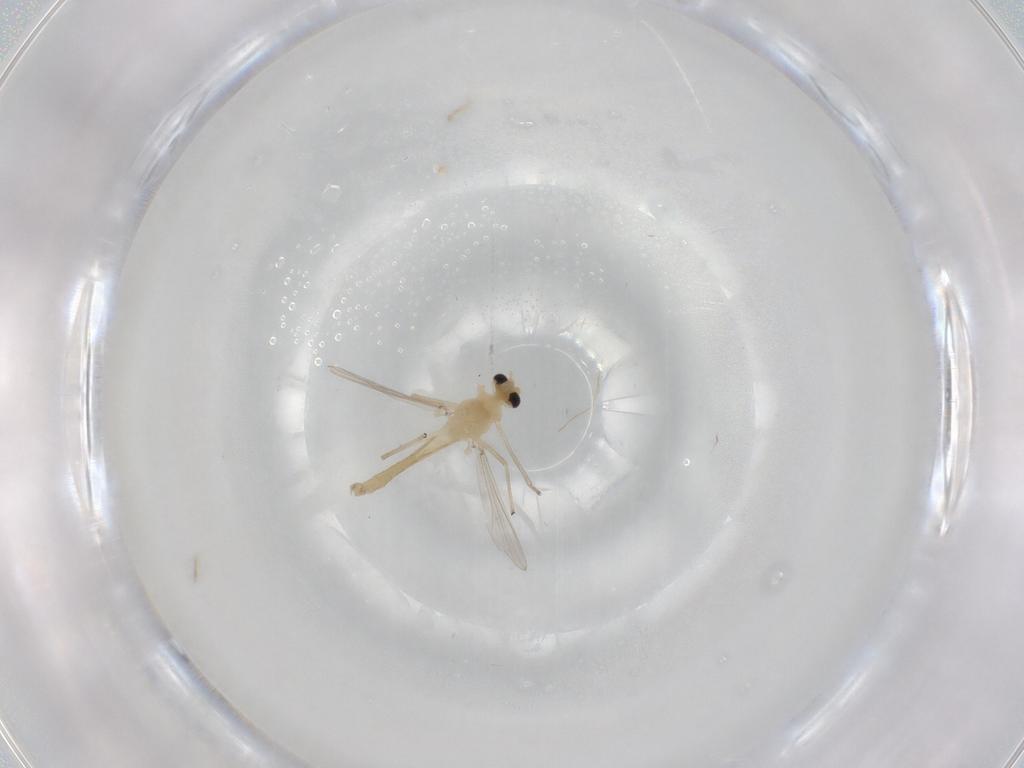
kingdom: Animalia
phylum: Arthropoda
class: Insecta
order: Diptera
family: Chironomidae
